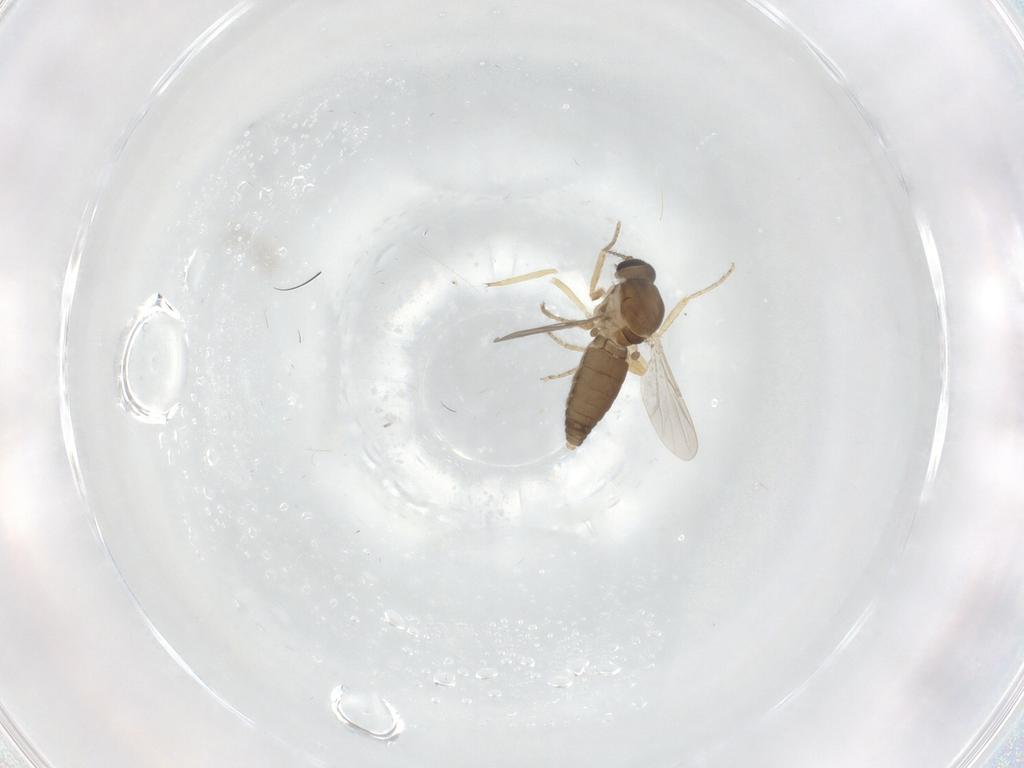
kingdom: Animalia
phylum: Arthropoda
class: Insecta
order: Diptera
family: Ceratopogonidae
